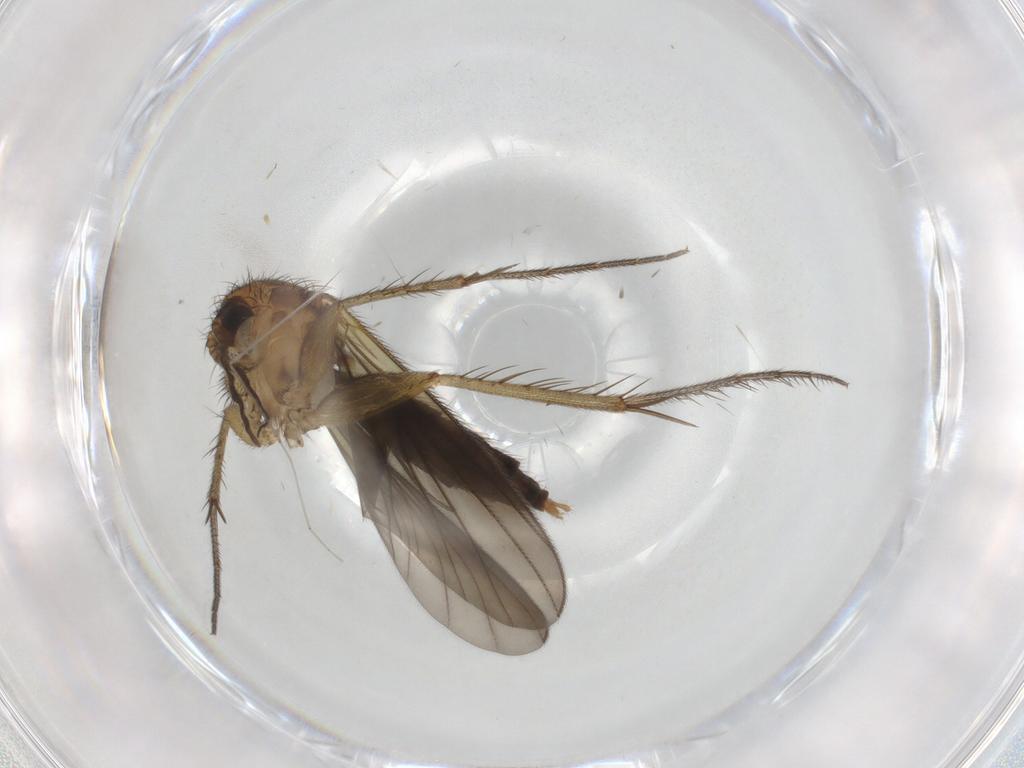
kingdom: Animalia
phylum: Arthropoda
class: Insecta
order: Diptera
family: Mycetophilidae
